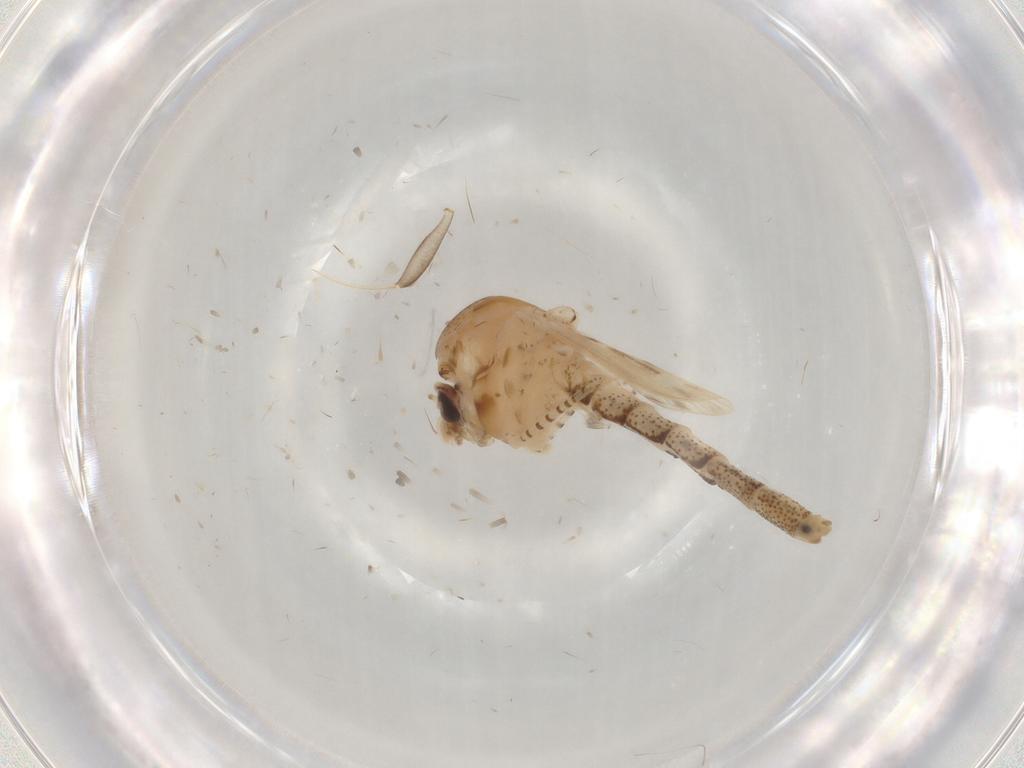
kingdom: Animalia
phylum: Arthropoda
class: Insecta
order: Diptera
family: Chaoboridae
